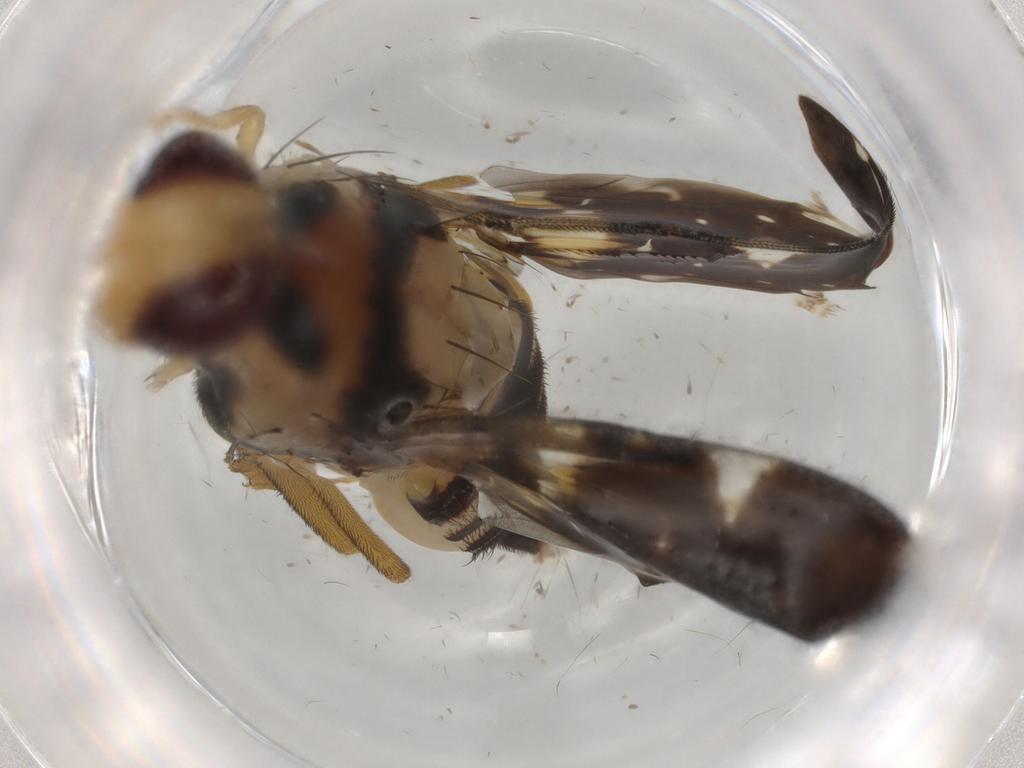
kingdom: Animalia
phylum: Arthropoda
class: Insecta
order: Diptera
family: Tephritidae
